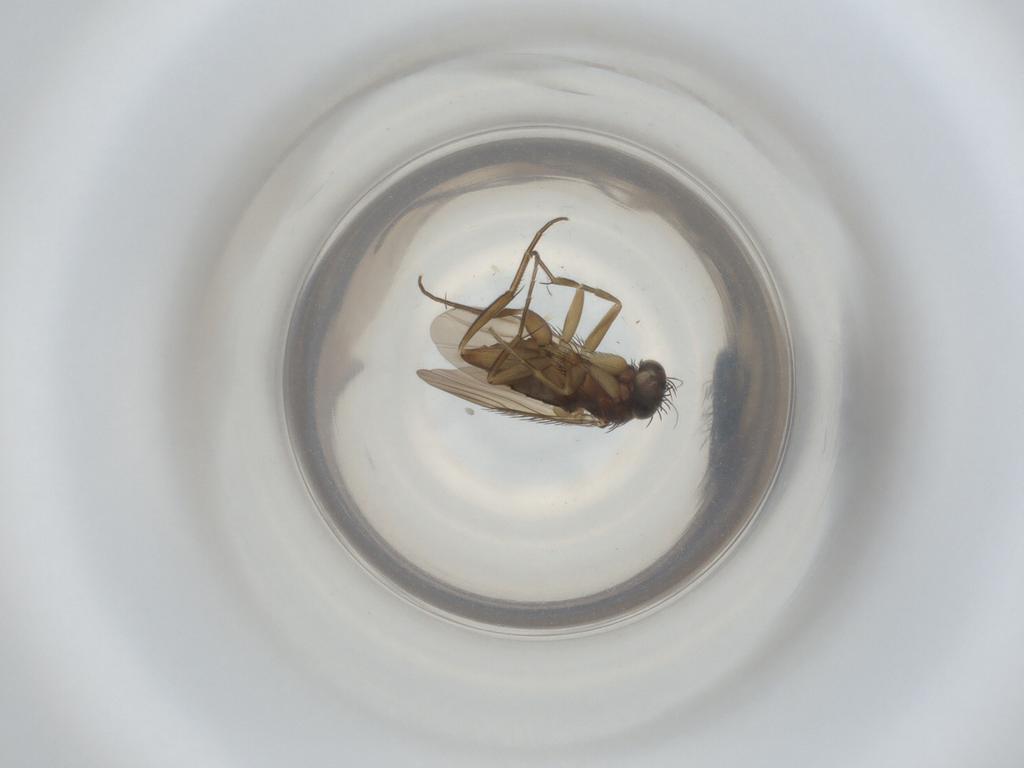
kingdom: Animalia
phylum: Arthropoda
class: Insecta
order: Diptera
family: Phoridae
